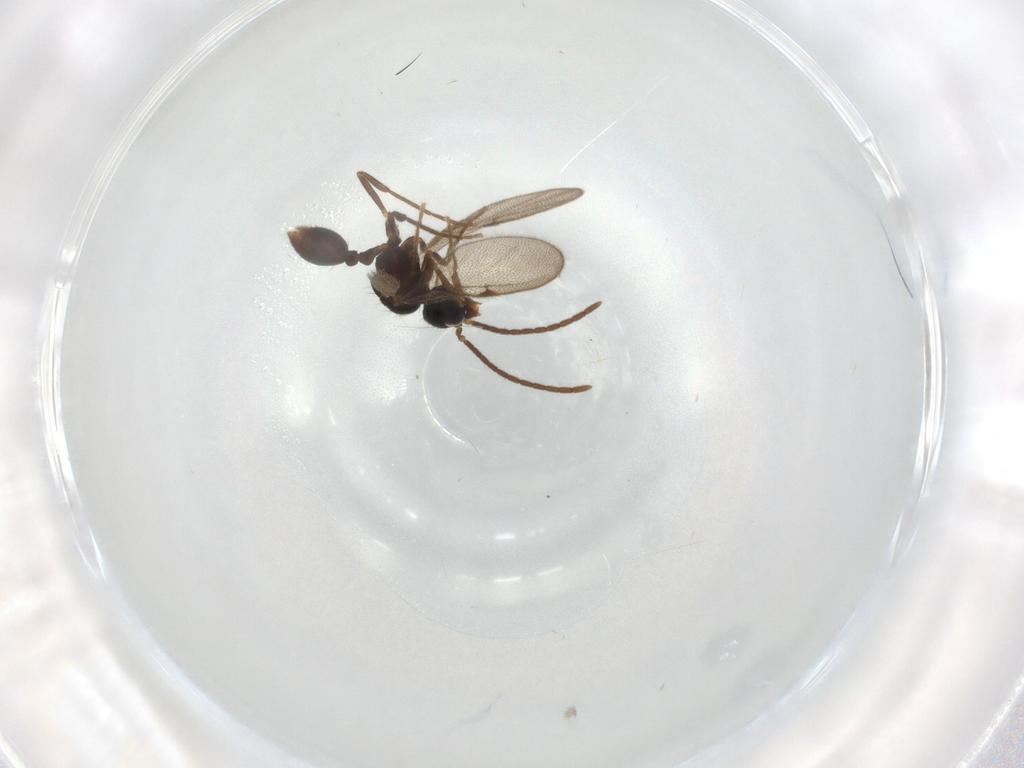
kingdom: Animalia
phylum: Arthropoda
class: Insecta
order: Hymenoptera
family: Formicidae
